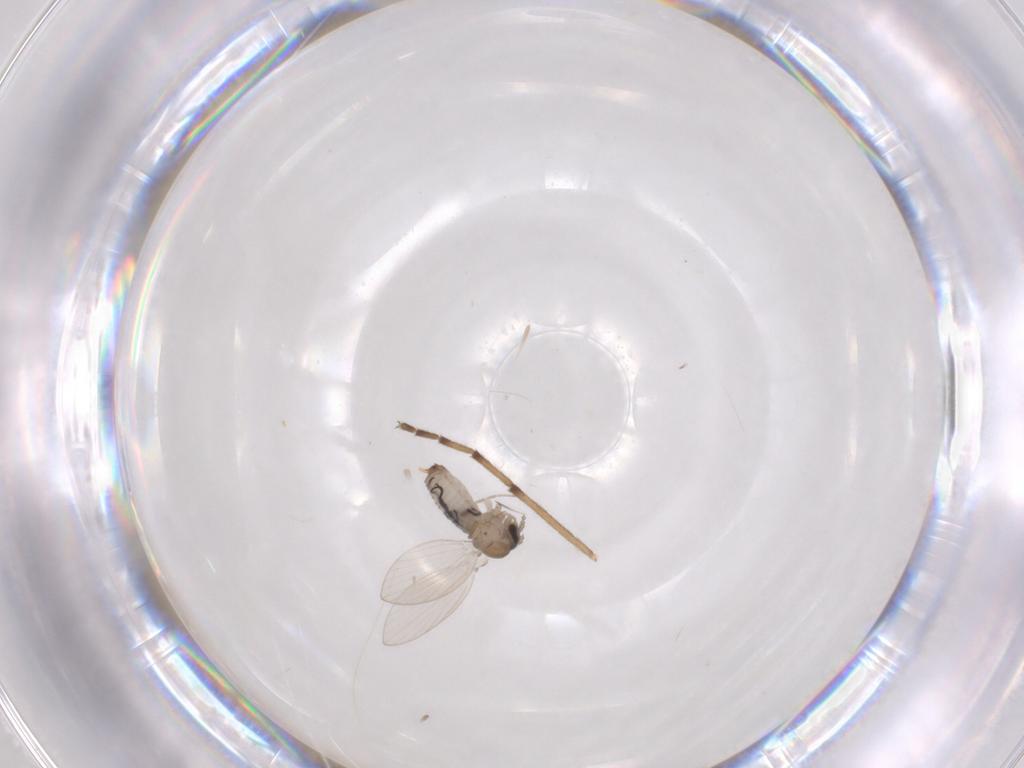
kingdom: Animalia
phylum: Arthropoda
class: Insecta
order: Diptera
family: Psychodidae
